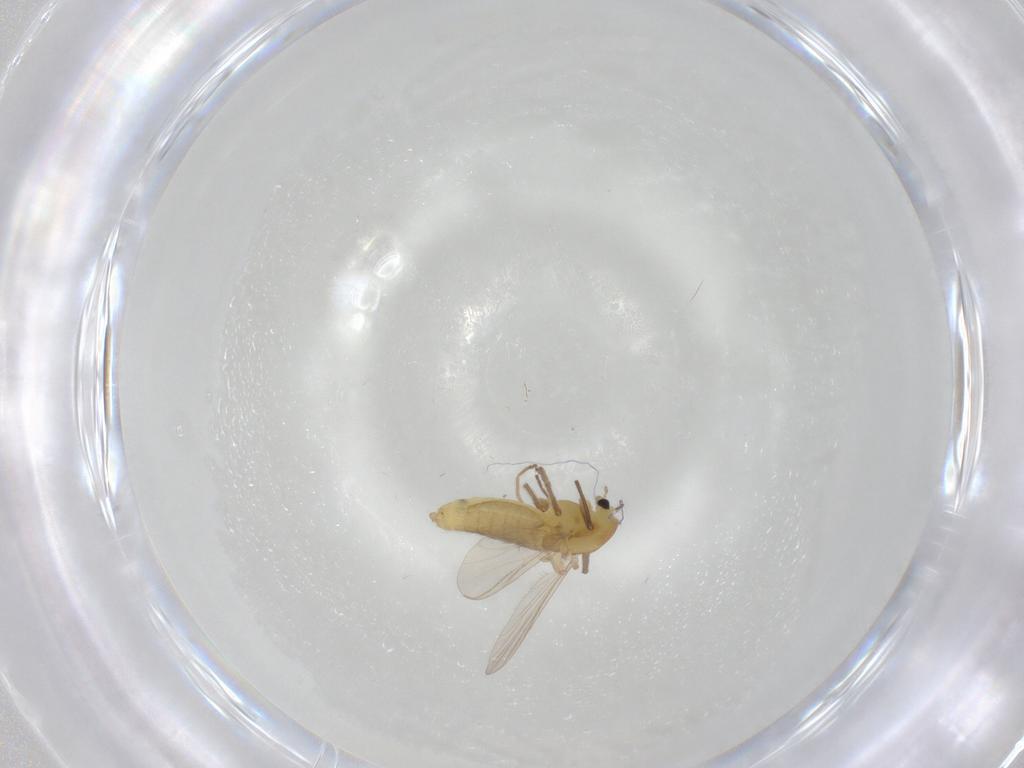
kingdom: Animalia
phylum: Arthropoda
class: Insecta
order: Diptera
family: Chironomidae
